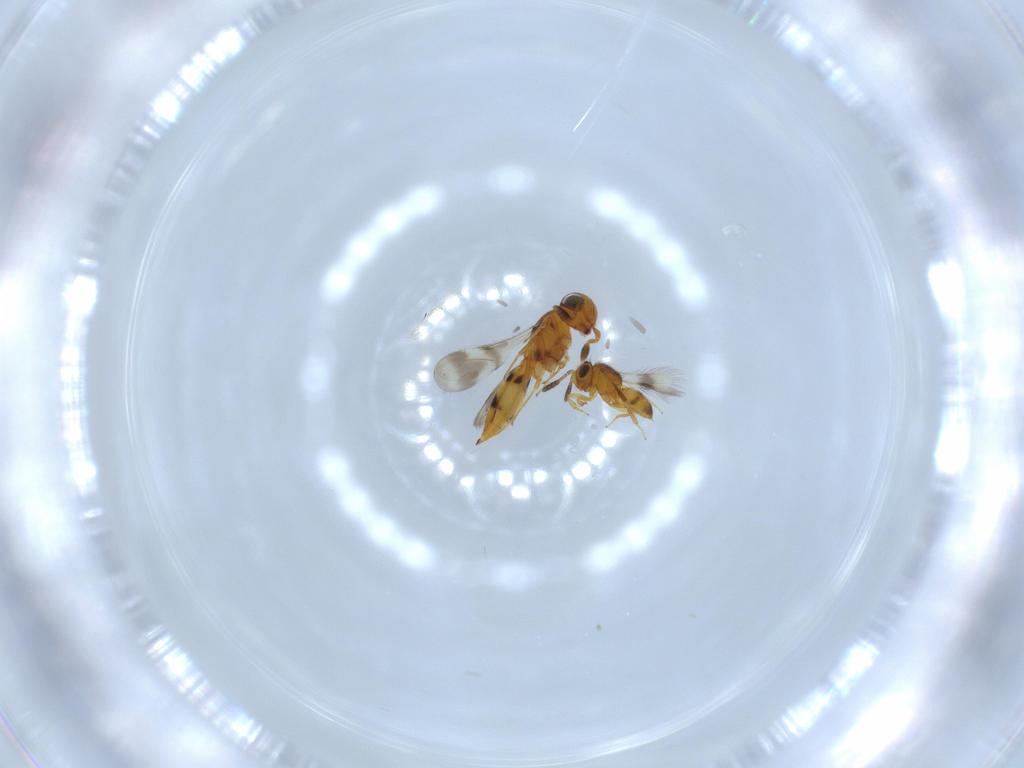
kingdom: Animalia
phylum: Arthropoda
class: Insecta
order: Hymenoptera
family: Scelionidae
